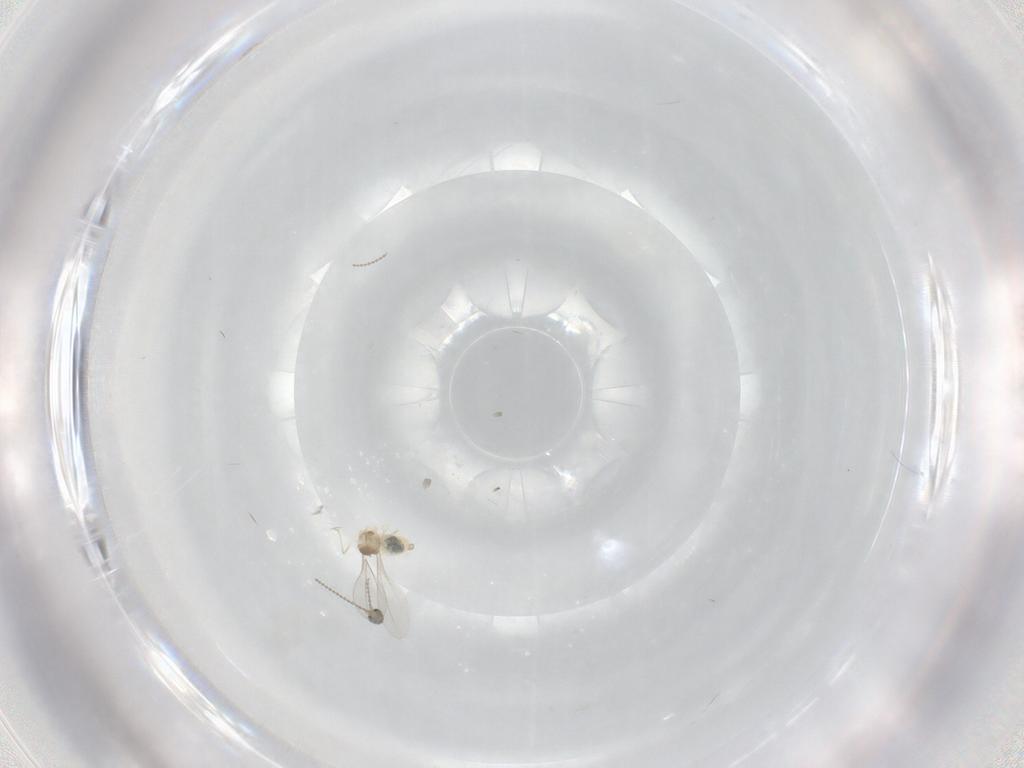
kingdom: Animalia
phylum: Arthropoda
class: Insecta
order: Diptera
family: Cecidomyiidae
